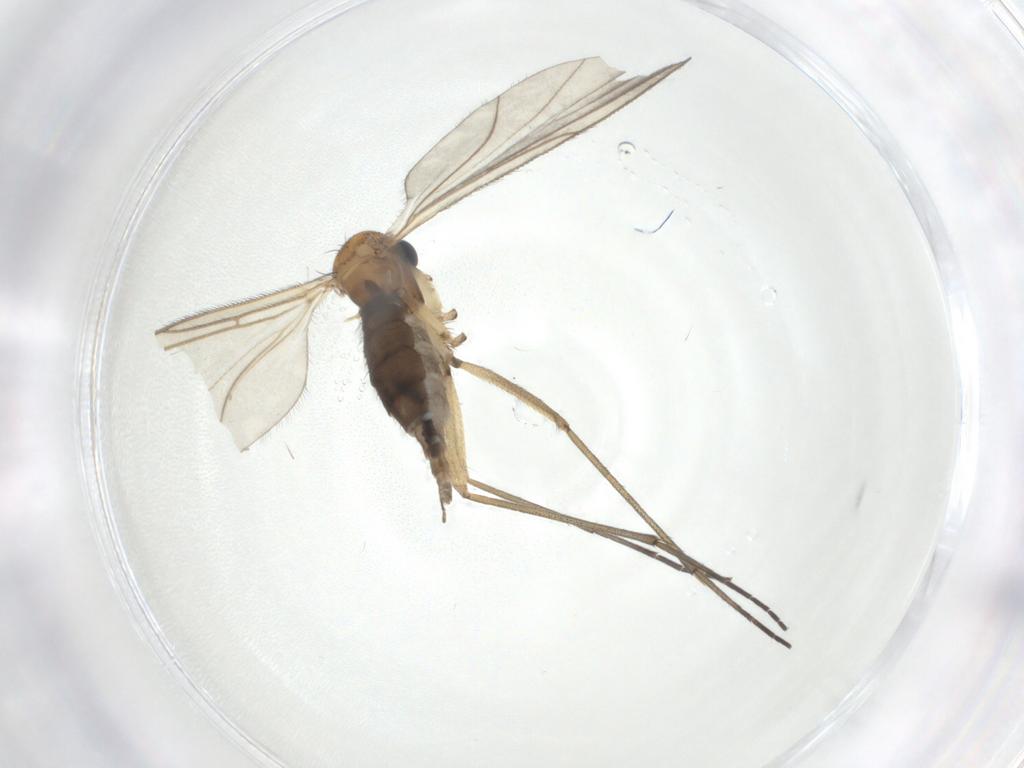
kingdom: Animalia
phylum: Arthropoda
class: Insecta
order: Diptera
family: Sciaridae
